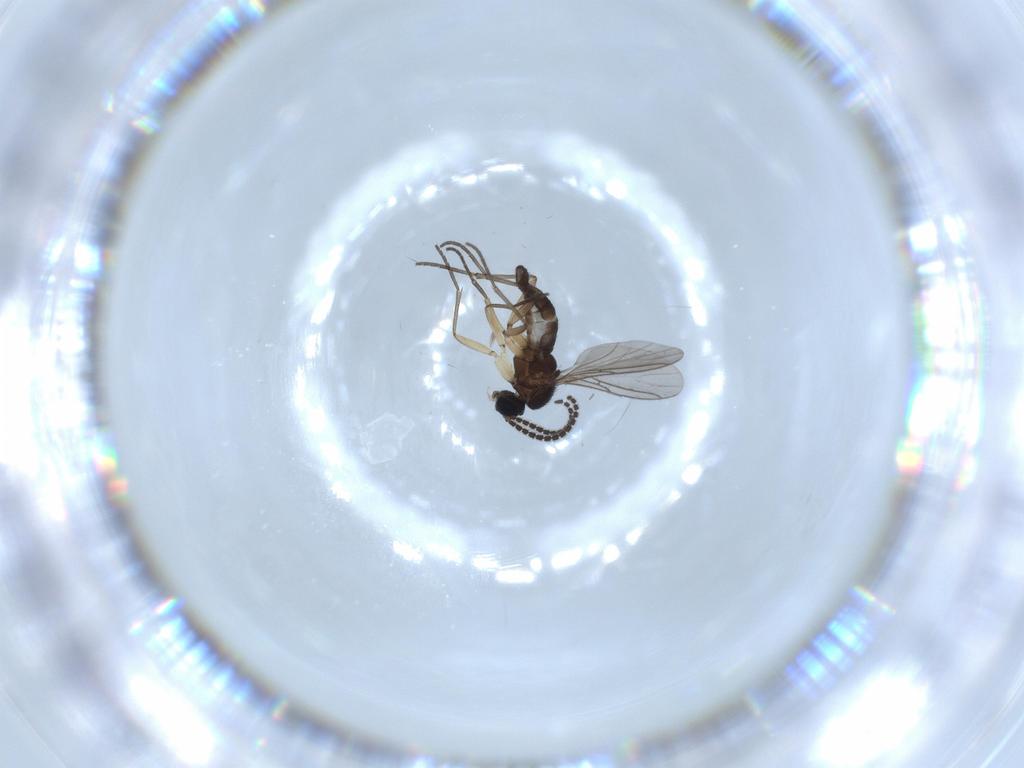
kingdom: Animalia
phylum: Arthropoda
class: Insecta
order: Diptera
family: Sciaridae
